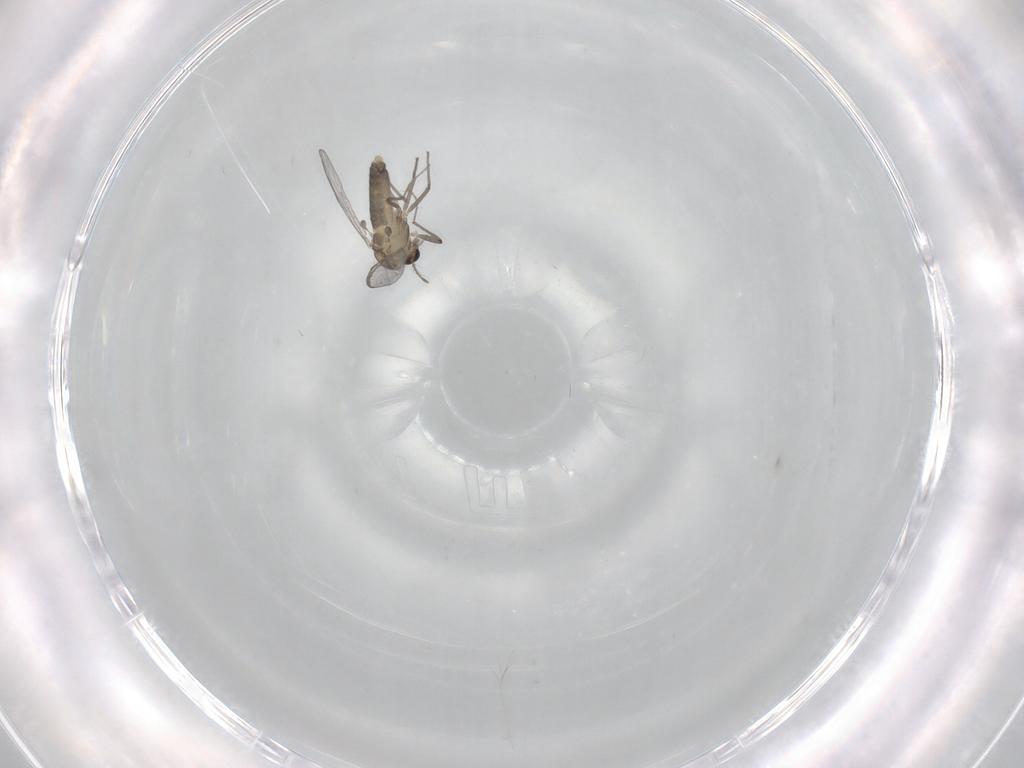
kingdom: Animalia
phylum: Arthropoda
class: Insecta
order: Diptera
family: Chironomidae
